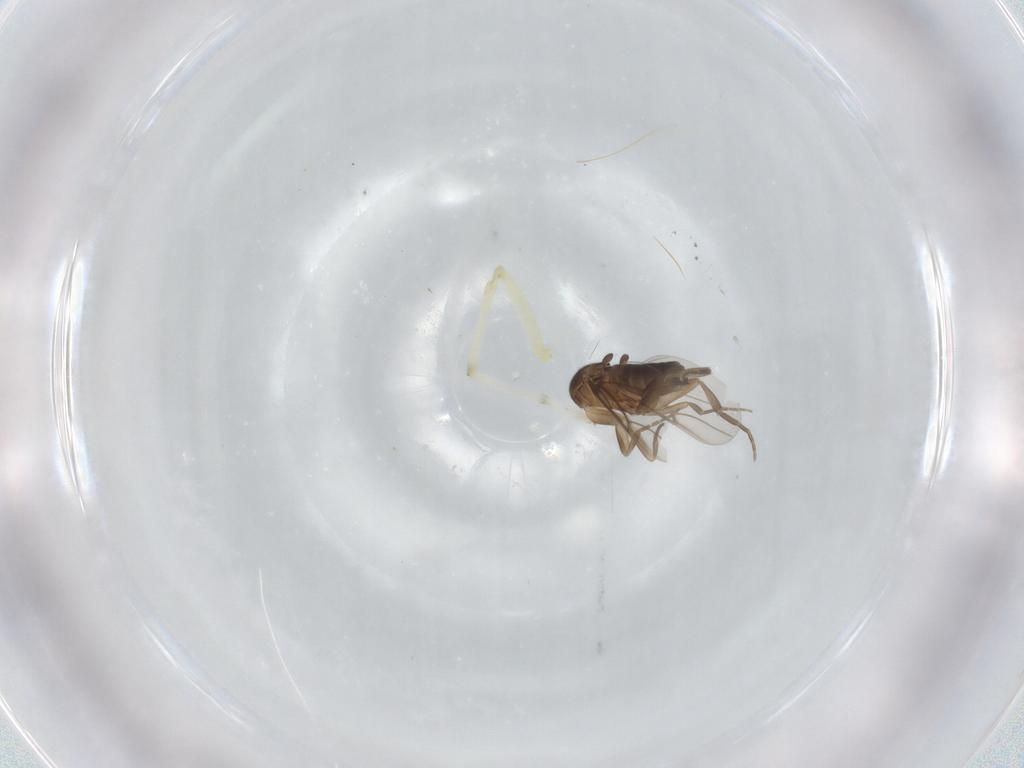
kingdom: Animalia
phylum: Arthropoda
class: Insecta
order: Diptera
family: Phoridae
